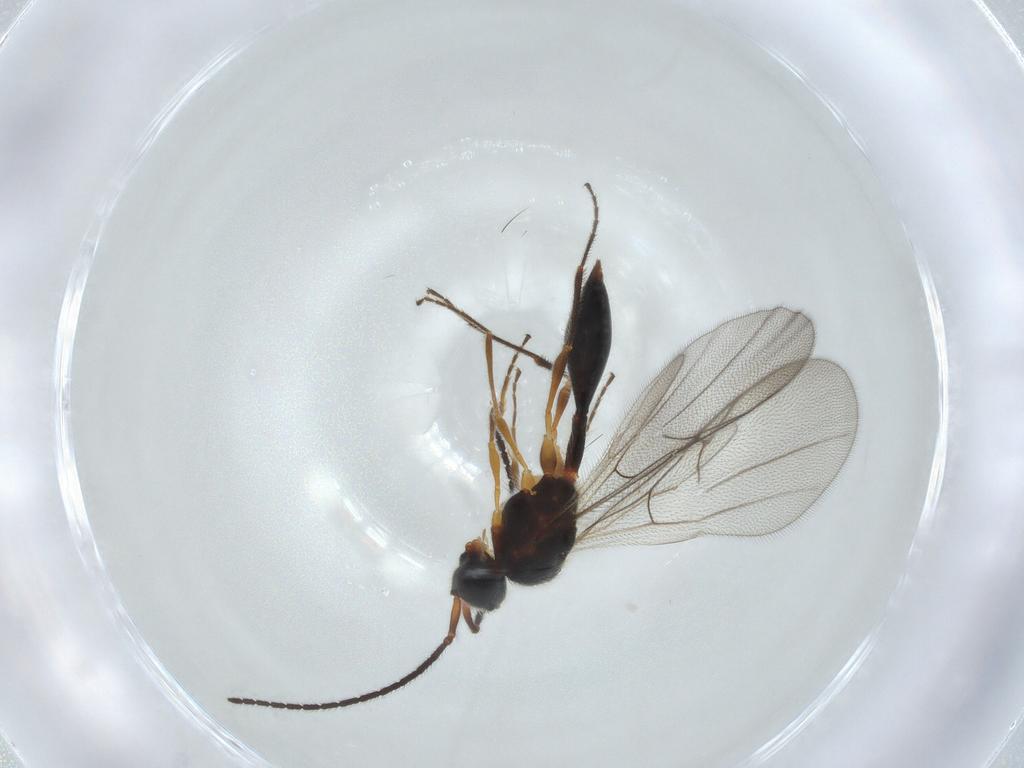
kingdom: Animalia
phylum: Arthropoda
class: Insecta
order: Hymenoptera
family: Diapriidae
